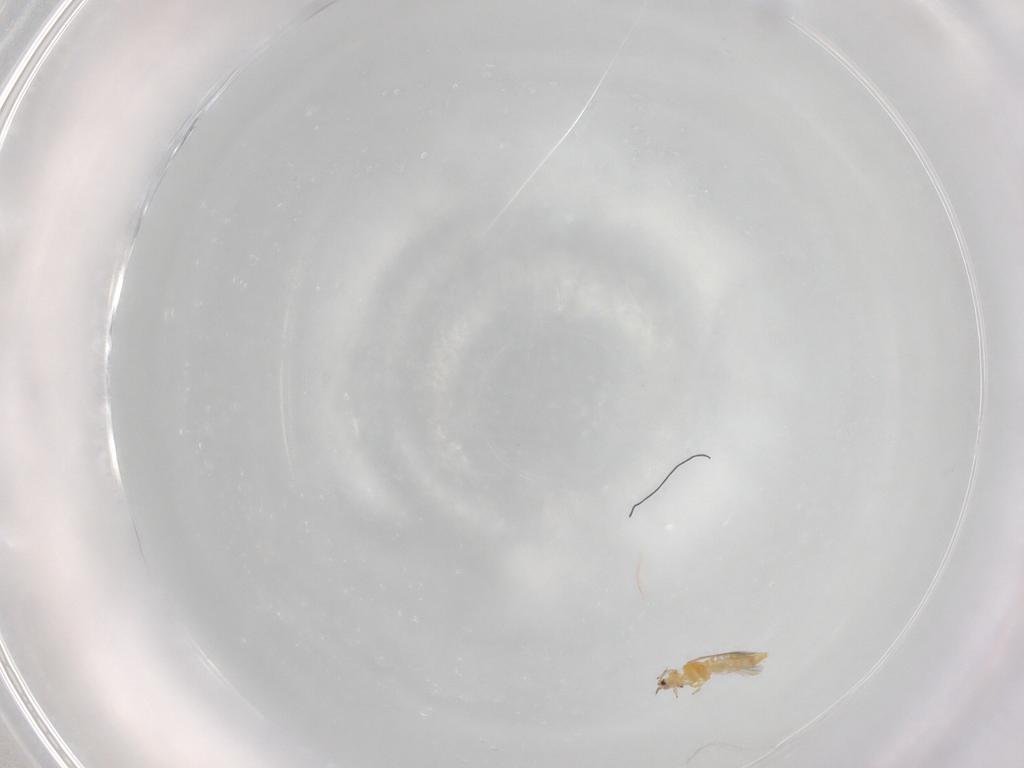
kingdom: Animalia
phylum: Arthropoda
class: Insecta
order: Thysanoptera
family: Thripidae
